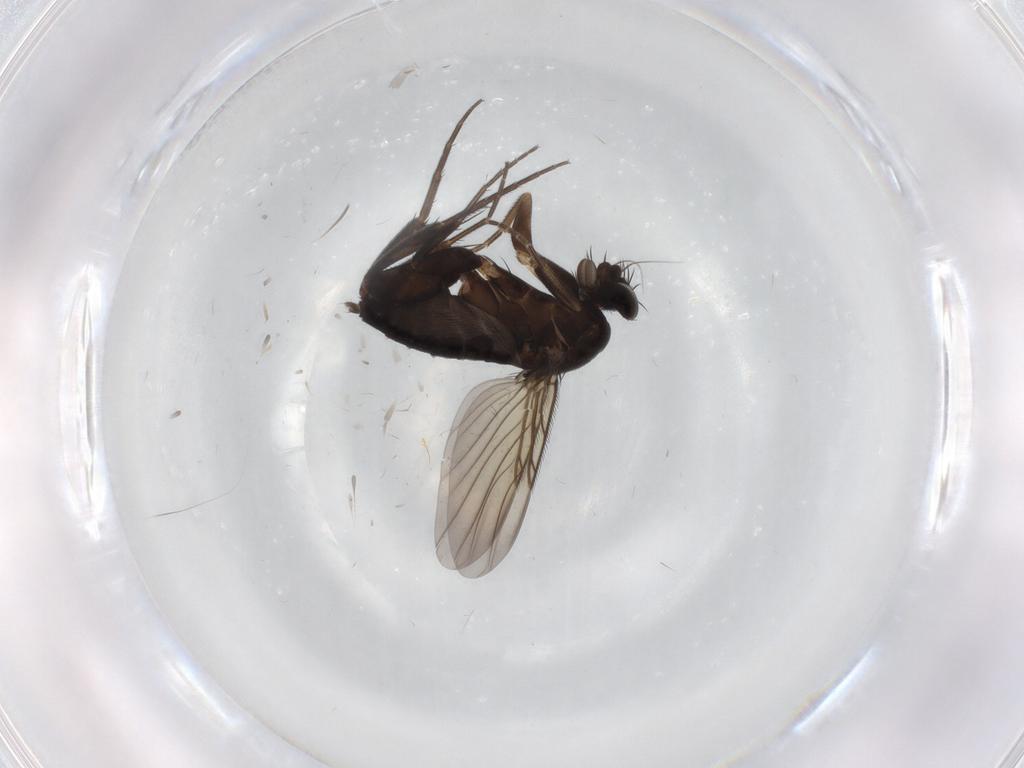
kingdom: Animalia
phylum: Arthropoda
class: Insecta
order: Diptera
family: Phoridae
